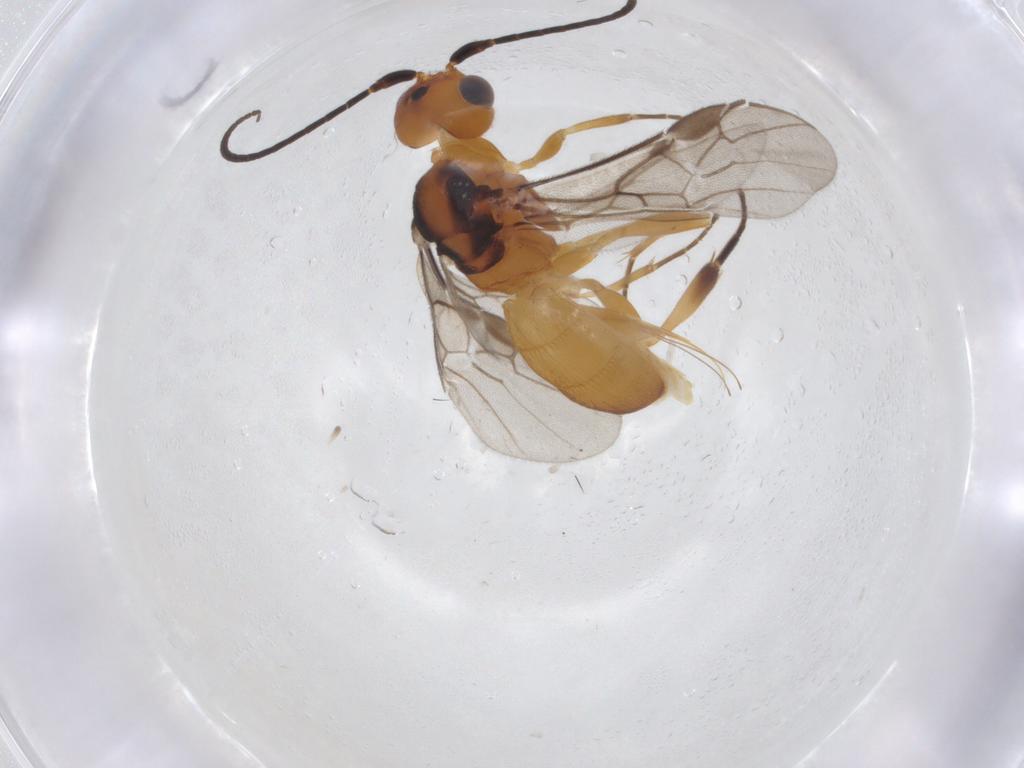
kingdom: Animalia
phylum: Arthropoda
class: Insecta
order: Hymenoptera
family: Braconidae
